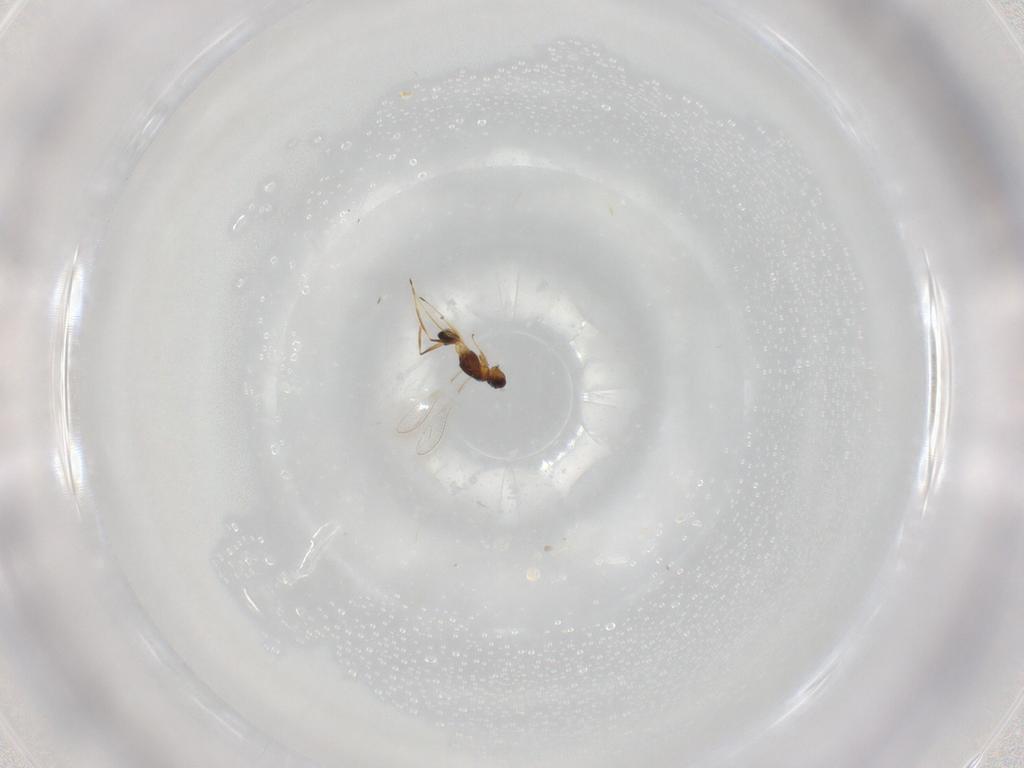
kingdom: Animalia
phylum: Arthropoda
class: Insecta
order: Hymenoptera
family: Mymaridae
